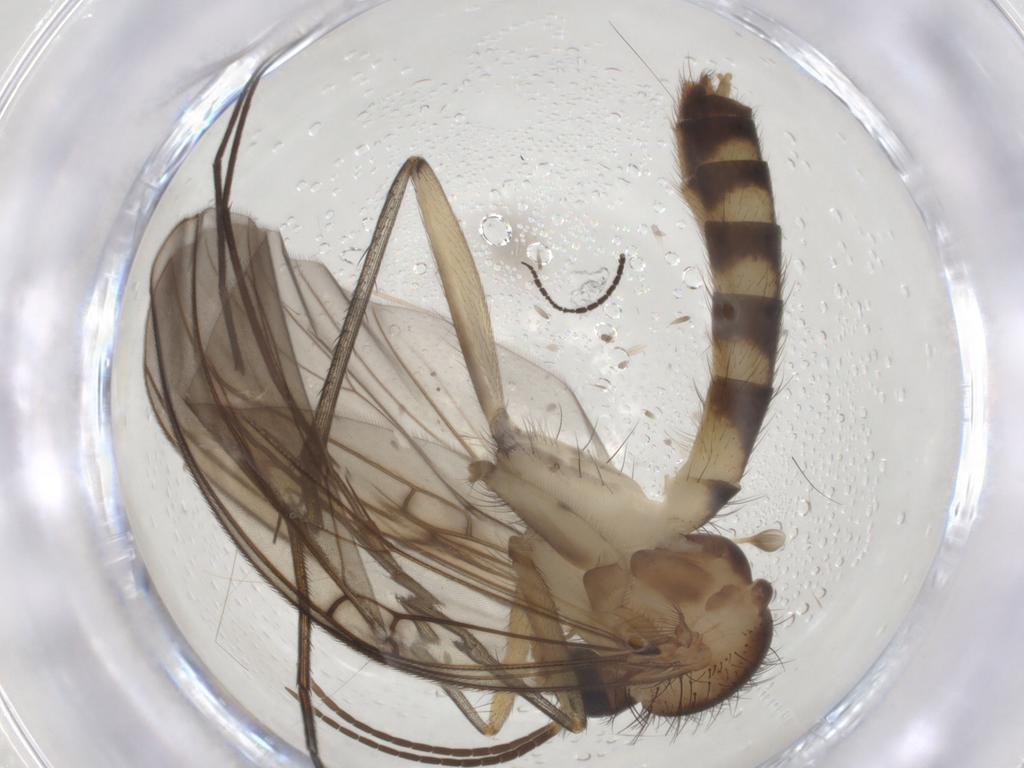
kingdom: Animalia
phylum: Arthropoda
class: Insecta
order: Diptera
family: Mycetophilidae
